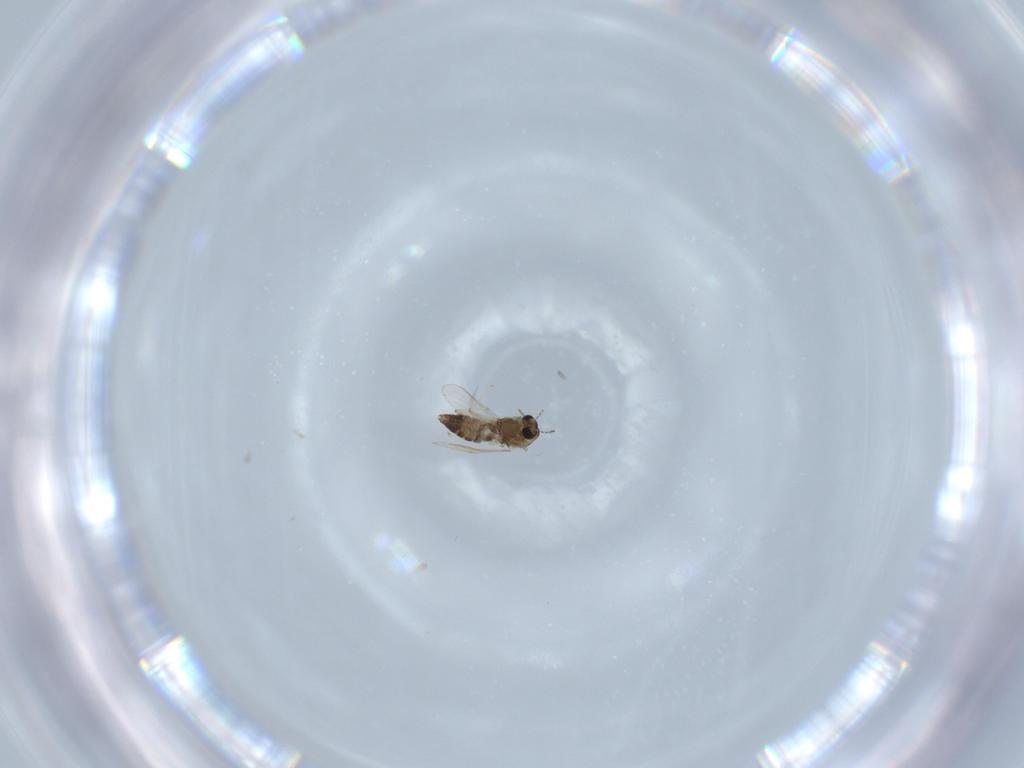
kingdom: Animalia
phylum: Arthropoda
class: Insecta
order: Diptera
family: Chironomidae
